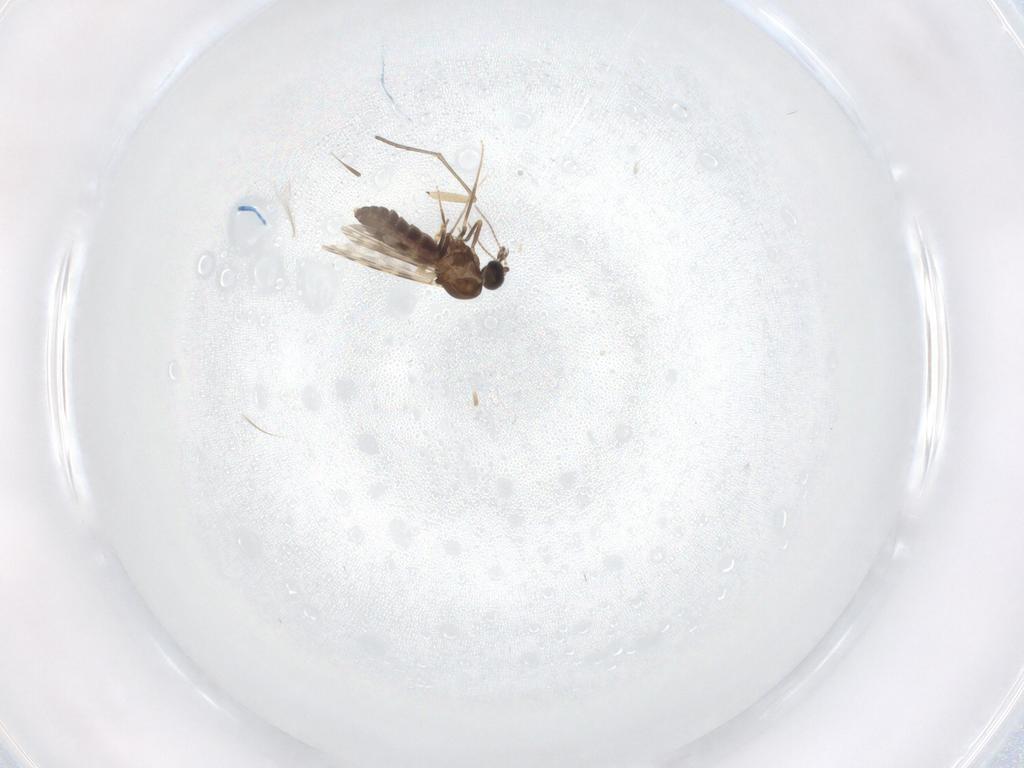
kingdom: Animalia
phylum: Arthropoda
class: Insecta
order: Diptera
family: Ceratopogonidae
